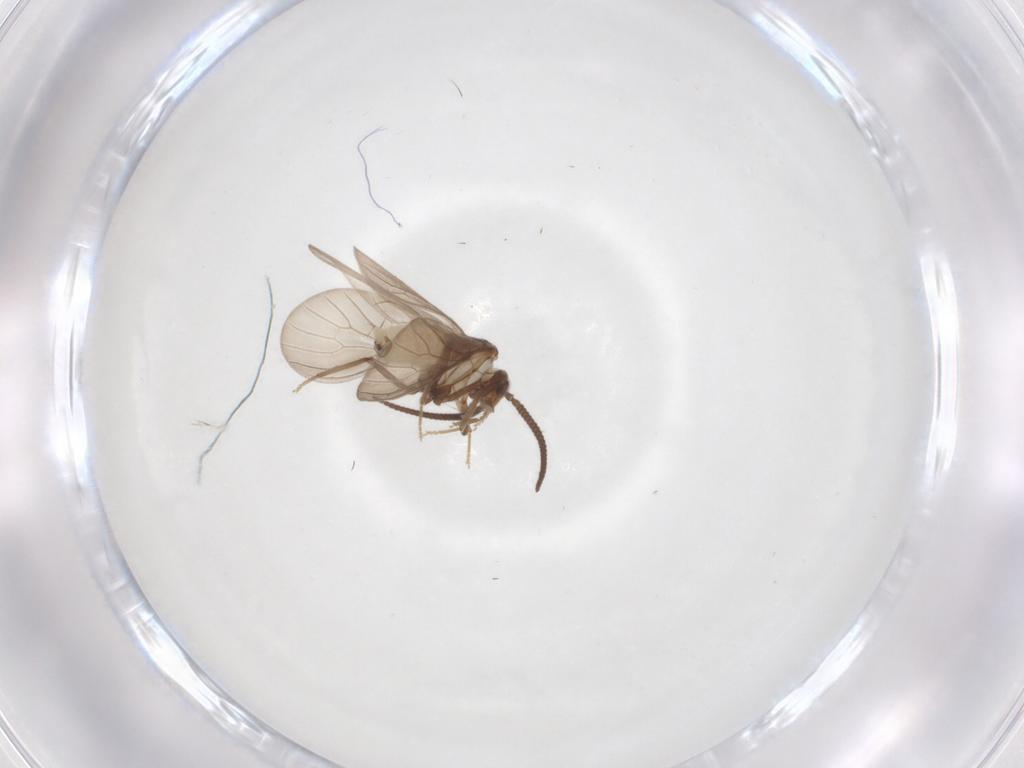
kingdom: Animalia
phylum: Arthropoda
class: Insecta
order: Neuroptera
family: Coniopterygidae
